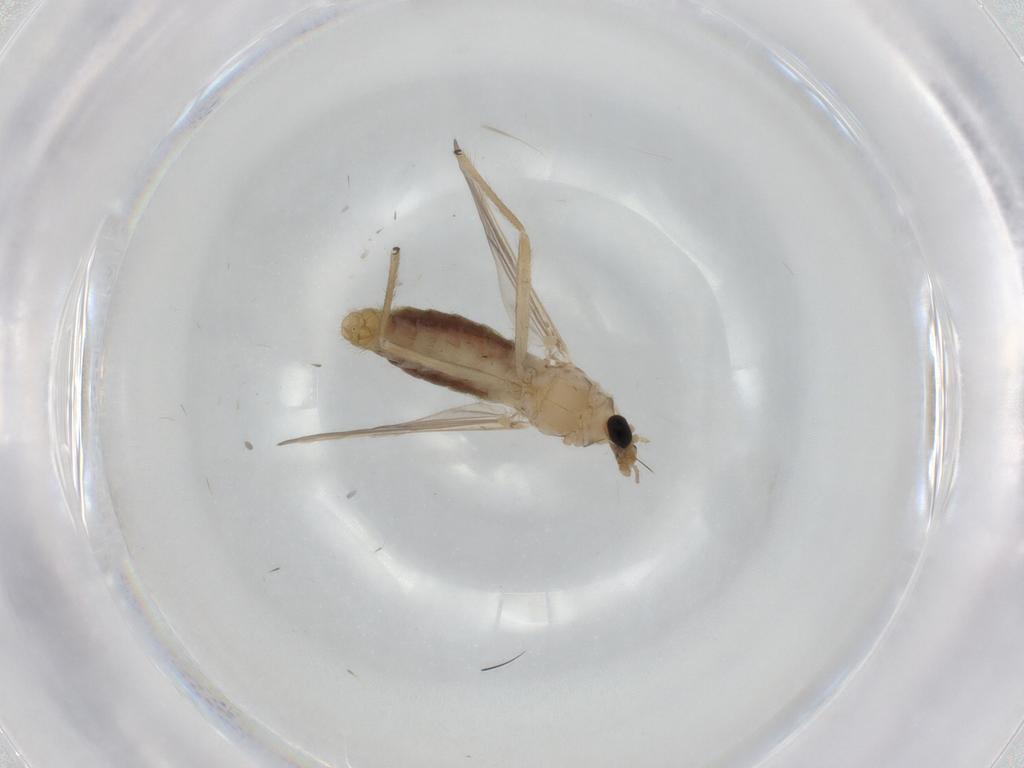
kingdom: Animalia
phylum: Arthropoda
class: Insecta
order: Diptera
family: Chironomidae
